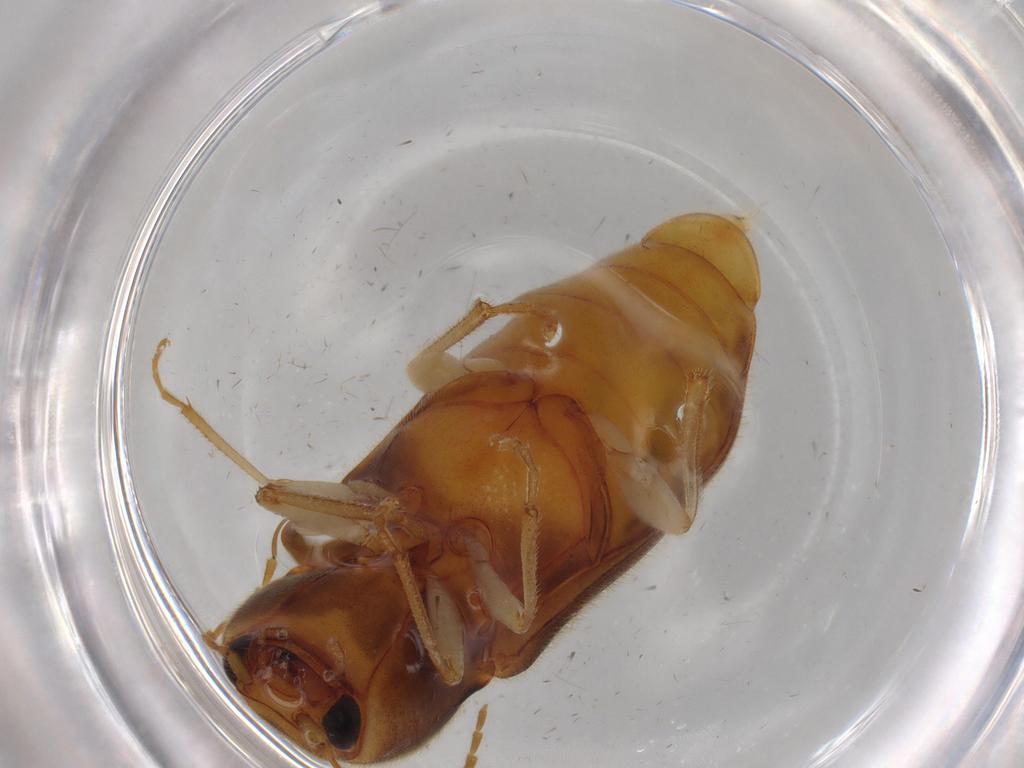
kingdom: Animalia
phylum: Arthropoda
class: Insecta
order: Coleoptera
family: Elateridae
